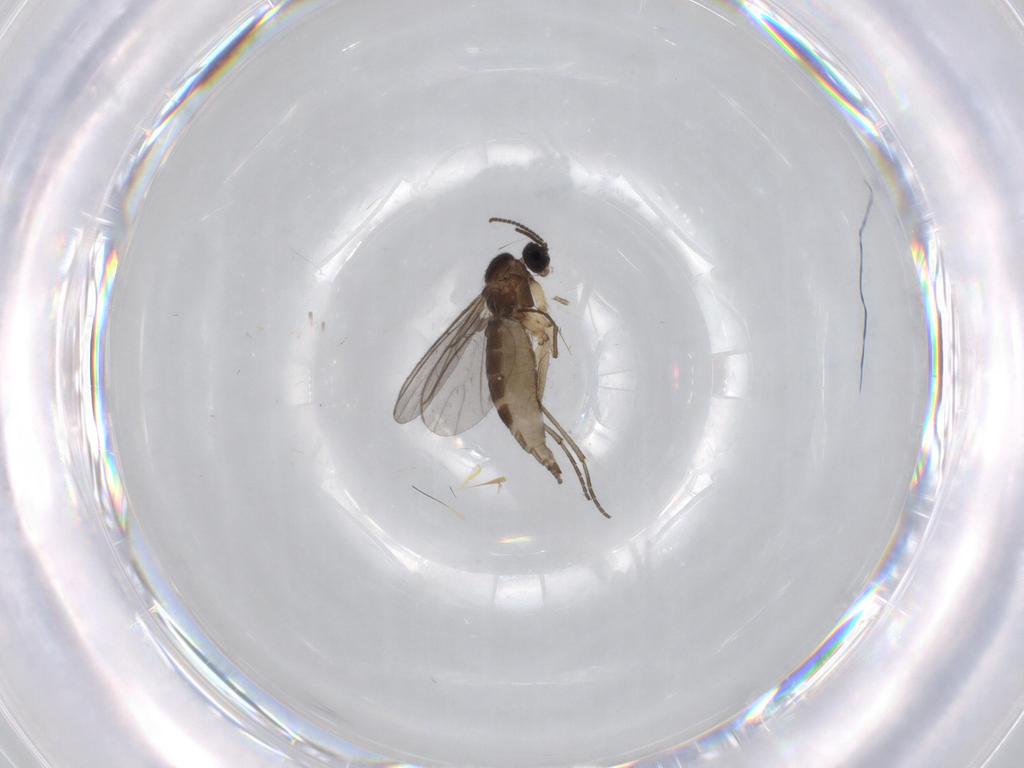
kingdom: Animalia
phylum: Arthropoda
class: Insecta
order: Diptera
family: Sciaridae
